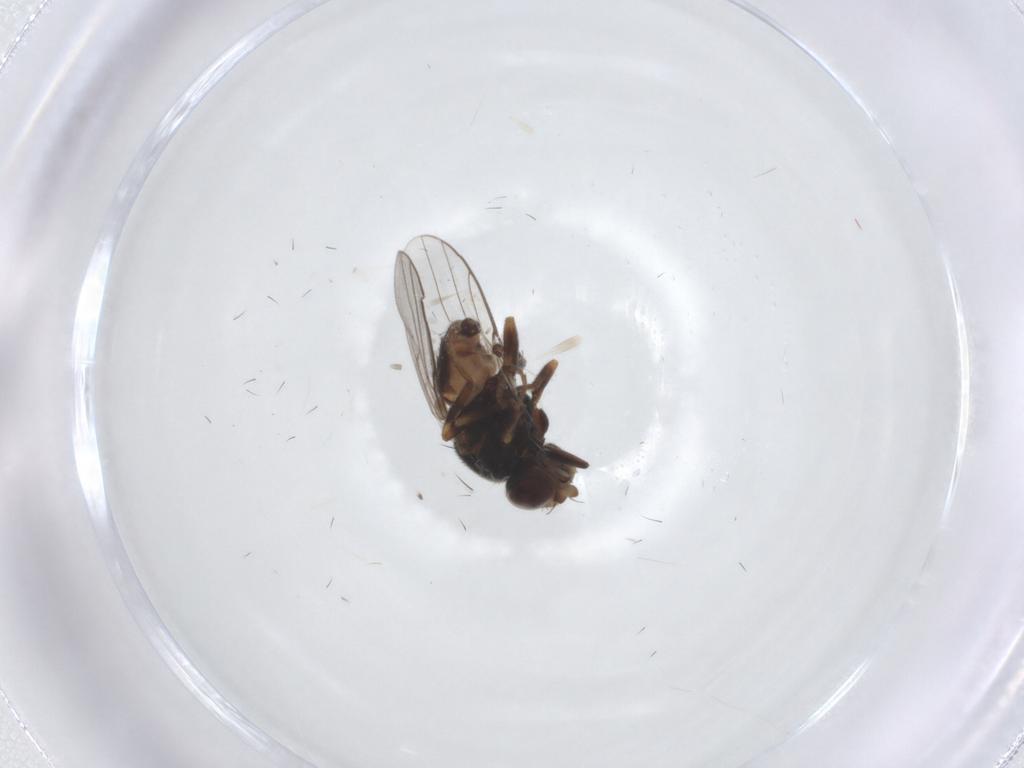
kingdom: Animalia
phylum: Arthropoda
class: Insecta
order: Diptera
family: Chloropidae
